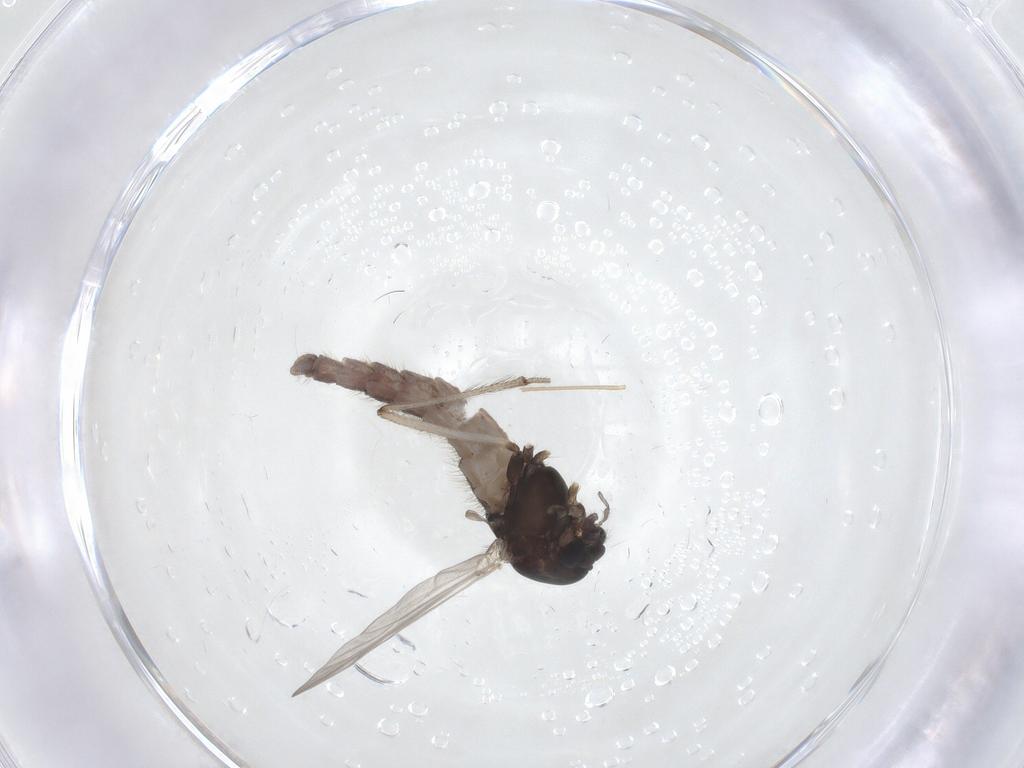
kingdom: Animalia
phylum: Arthropoda
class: Insecta
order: Diptera
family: Chironomidae
